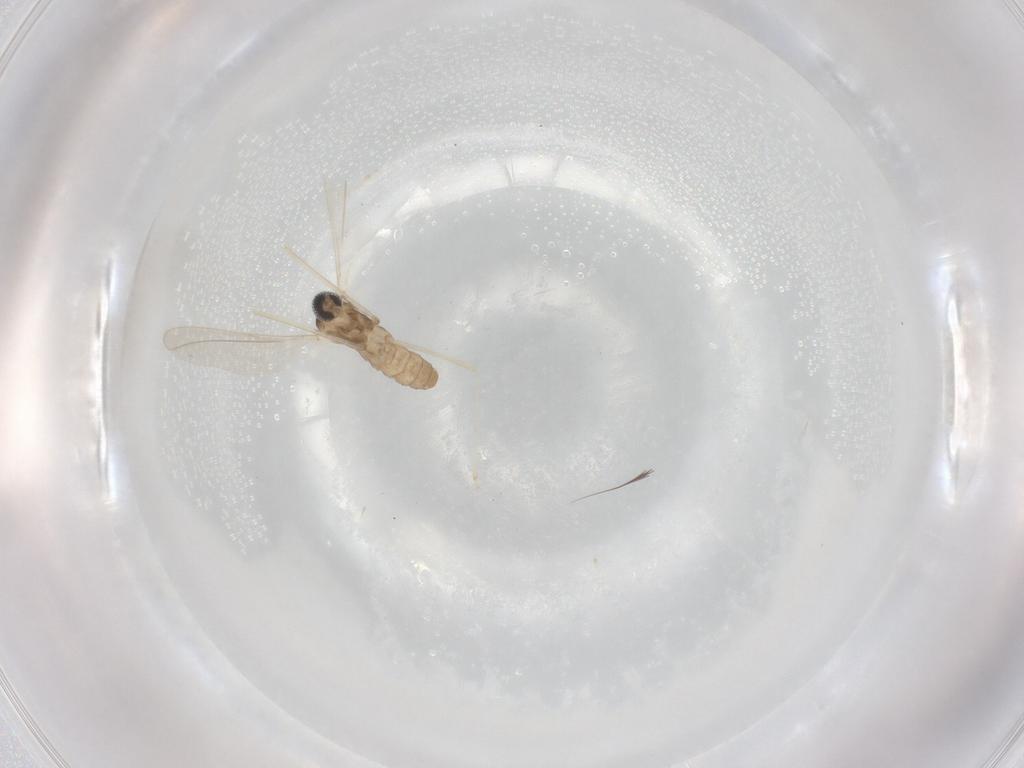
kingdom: Animalia
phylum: Arthropoda
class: Insecta
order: Diptera
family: Cecidomyiidae
